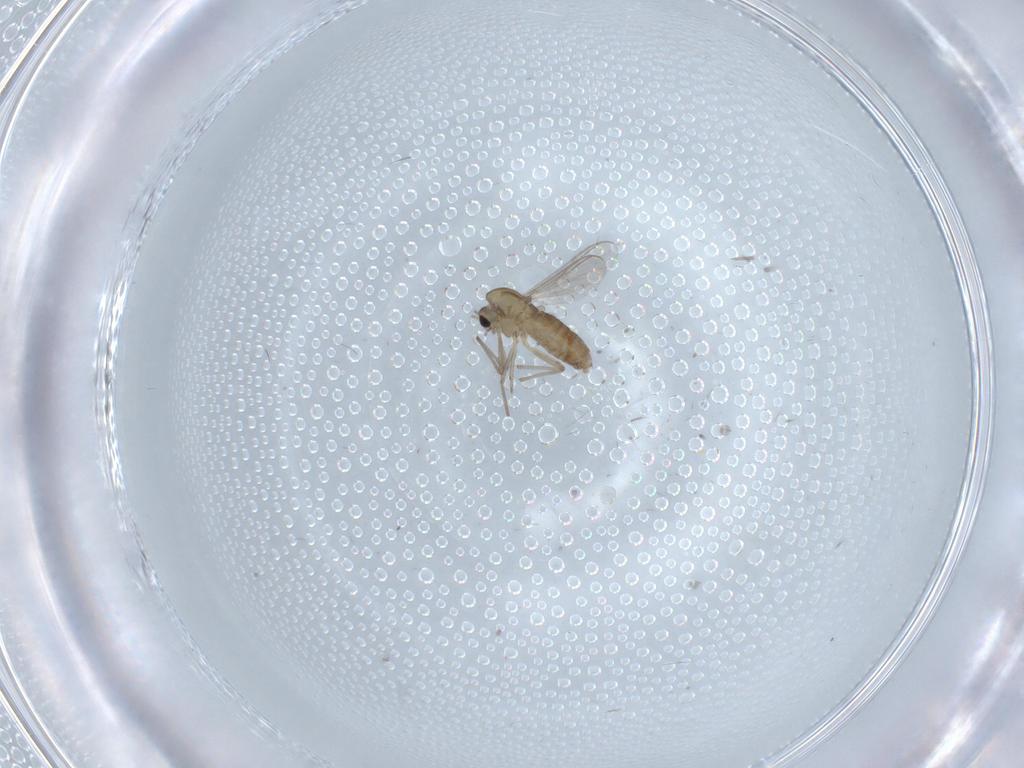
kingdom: Animalia
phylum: Arthropoda
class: Insecta
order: Diptera
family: Chironomidae
